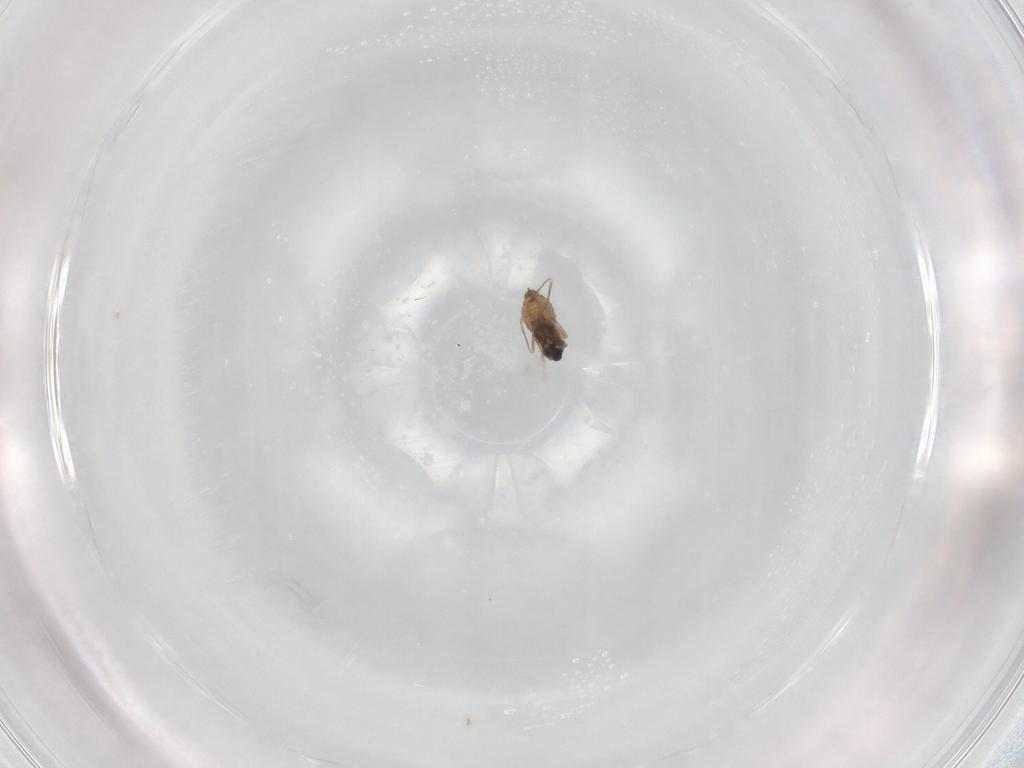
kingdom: Animalia
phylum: Arthropoda
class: Insecta
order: Diptera
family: Cecidomyiidae
